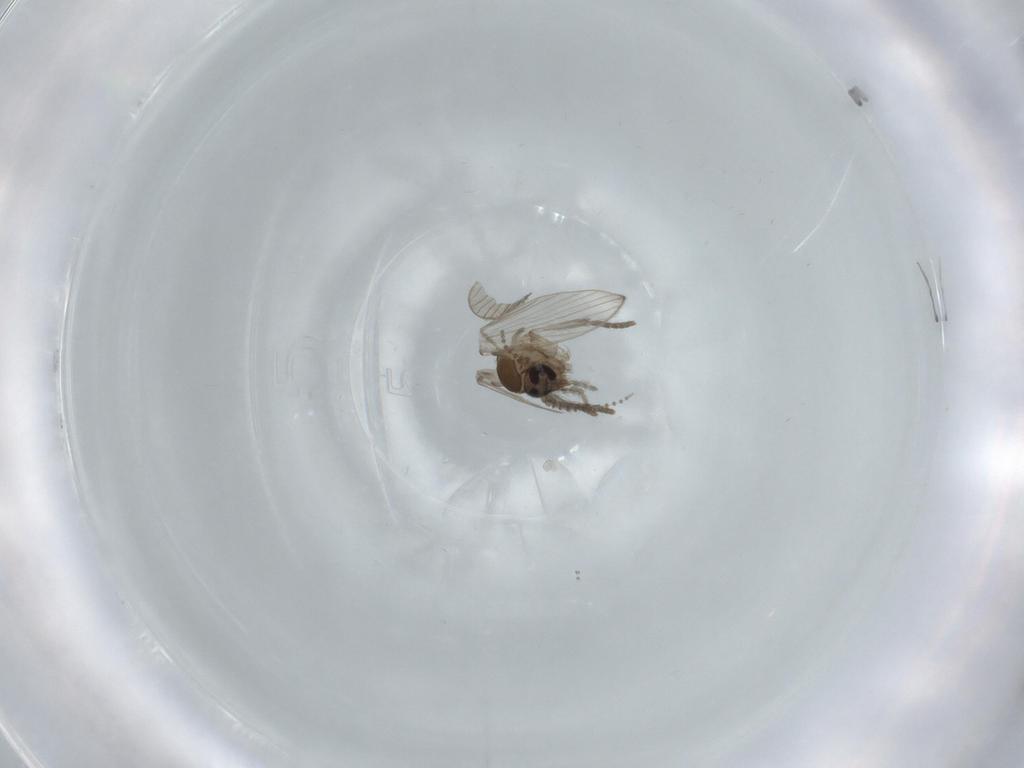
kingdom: Animalia
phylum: Arthropoda
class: Insecta
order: Diptera
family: Psychodidae
